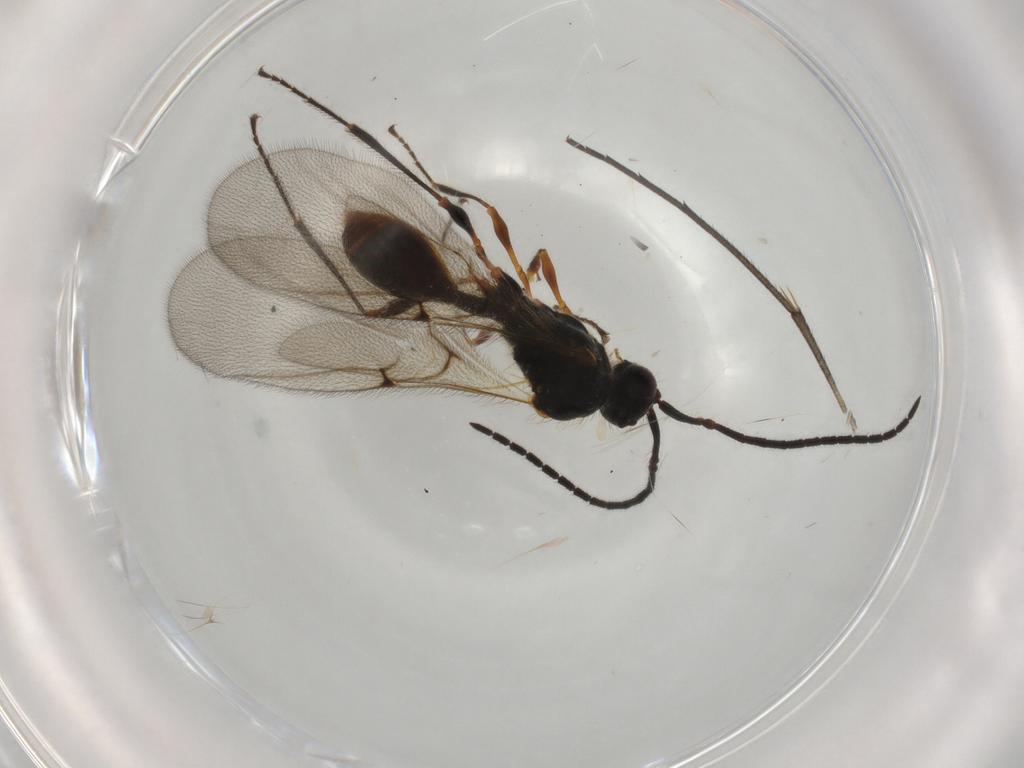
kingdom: Animalia
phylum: Arthropoda
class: Insecta
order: Hymenoptera
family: Diapriidae
